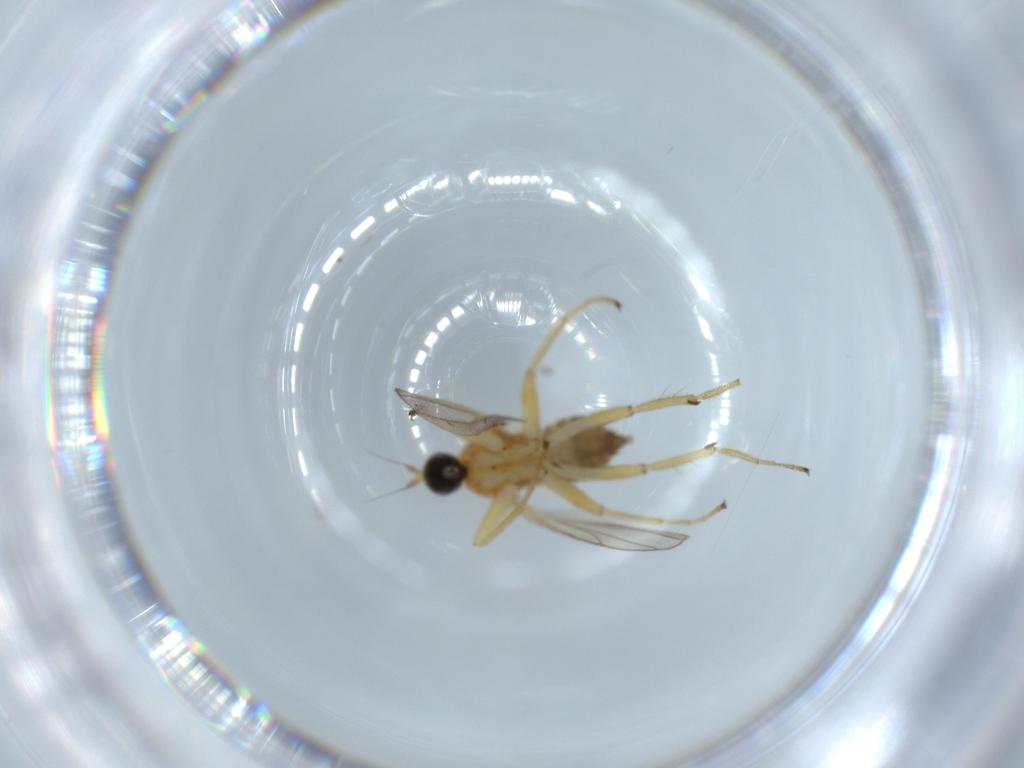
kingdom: Animalia
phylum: Arthropoda
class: Insecta
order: Diptera
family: Hybotidae
